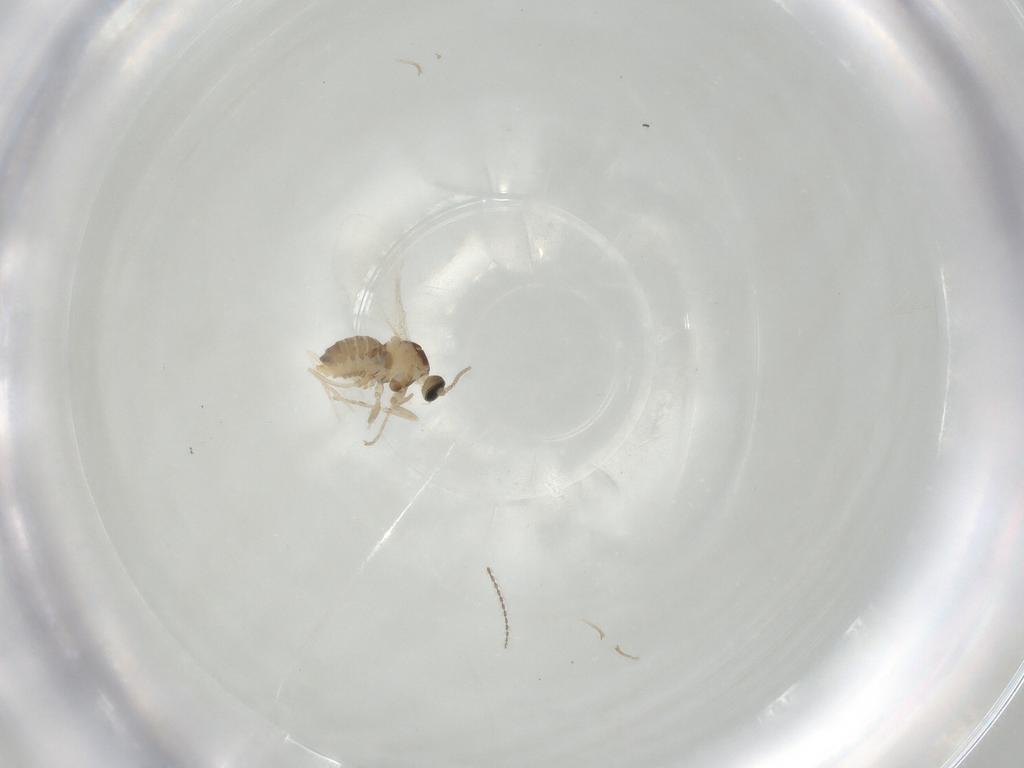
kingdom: Animalia
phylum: Arthropoda
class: Insecta
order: Diptera
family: Cecidomyiidae
